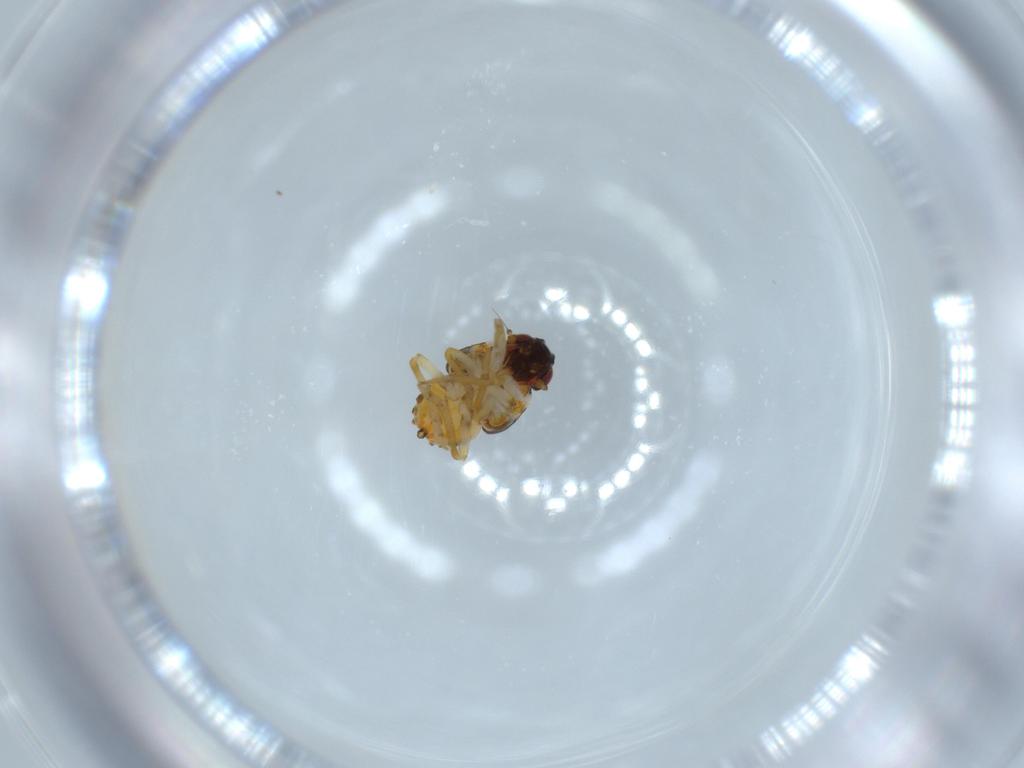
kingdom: Animalia
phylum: Arthropoda
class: Insecta
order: Hemiptera
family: Issidae
